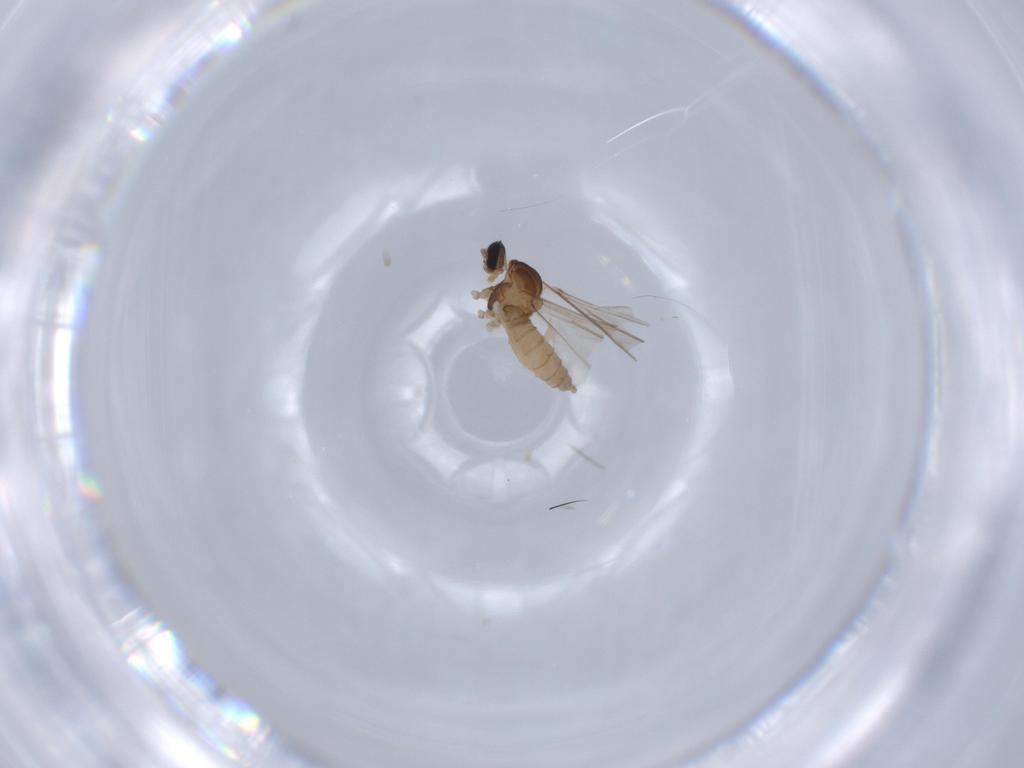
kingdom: Animalia
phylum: Arthropoda
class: Insecta
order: Diptera
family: Cecidomyiidae
